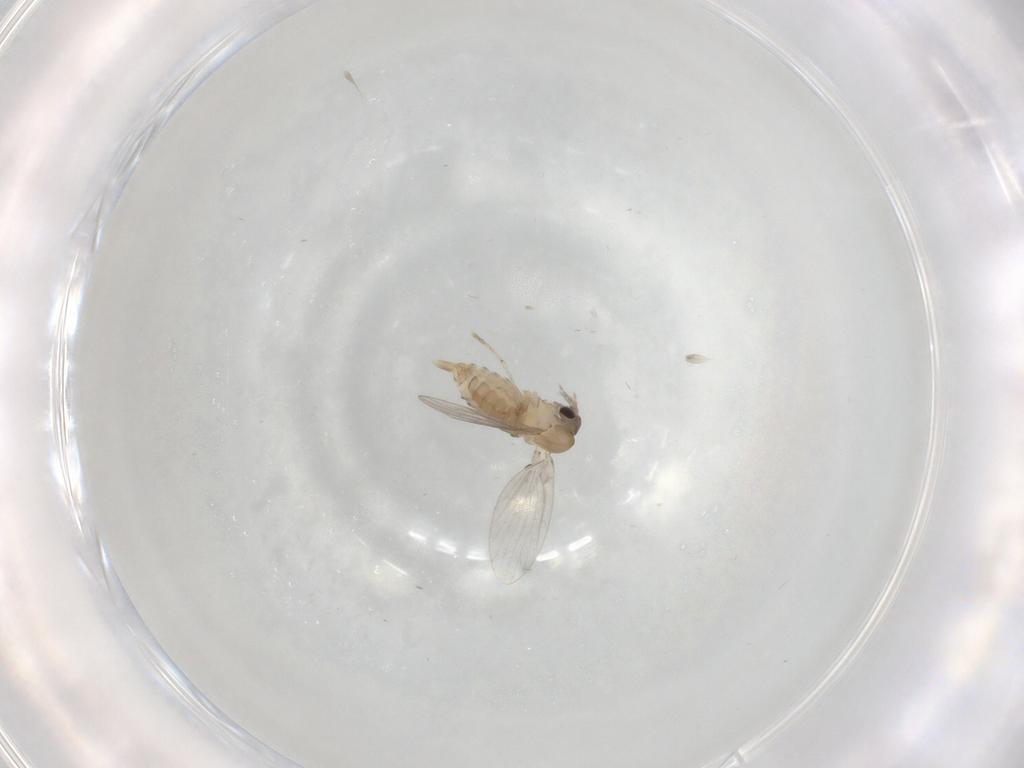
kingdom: Animalia
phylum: Arthropoda
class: Insecta
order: Diptera
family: Psychodidae
